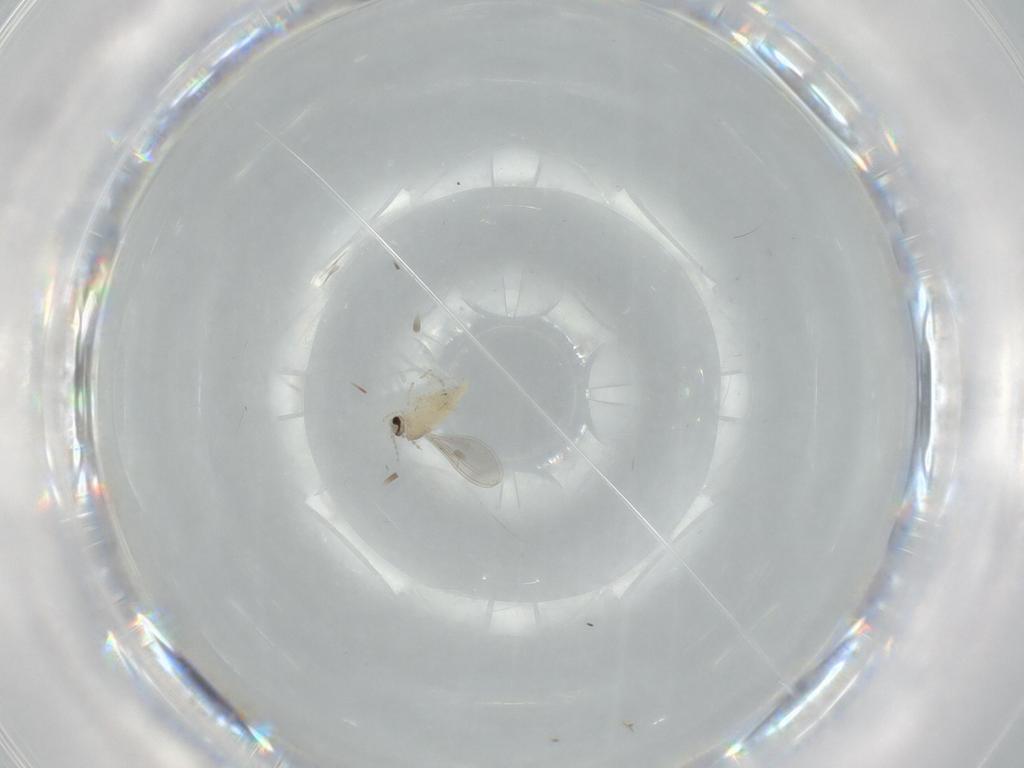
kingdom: Animalia
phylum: Arthropoda
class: Insecta
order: Diptera
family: Cecidomyiidae
